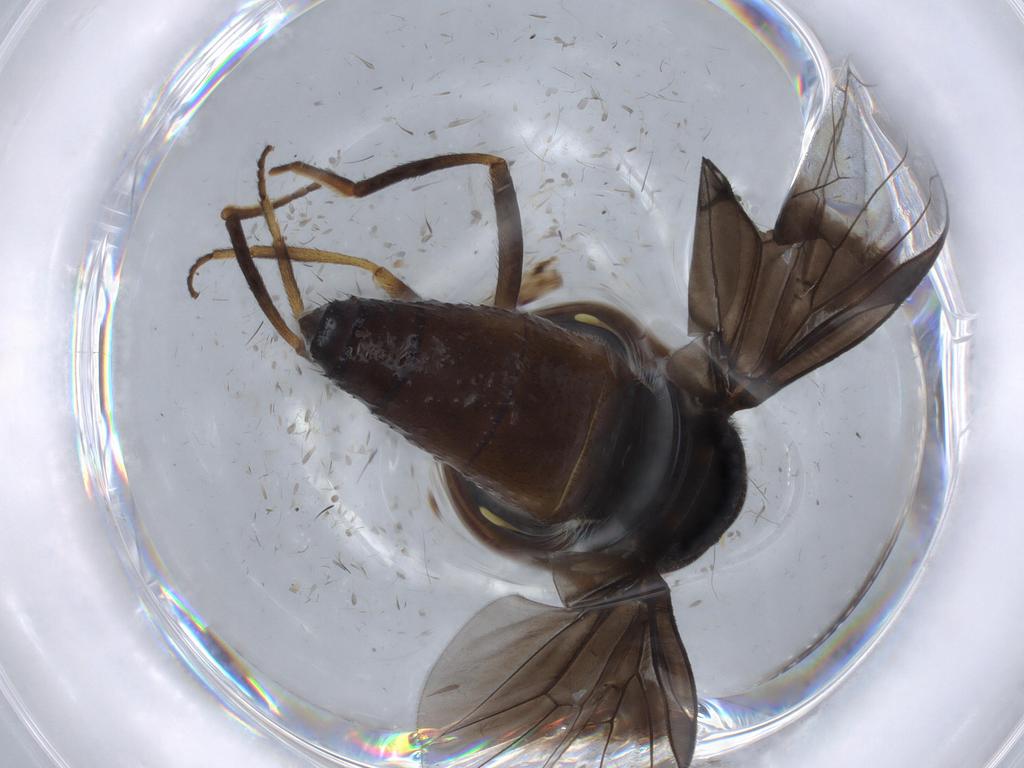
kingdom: Animalia
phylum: Arthropoda
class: Insecta
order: Diptera
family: Syrphidae
